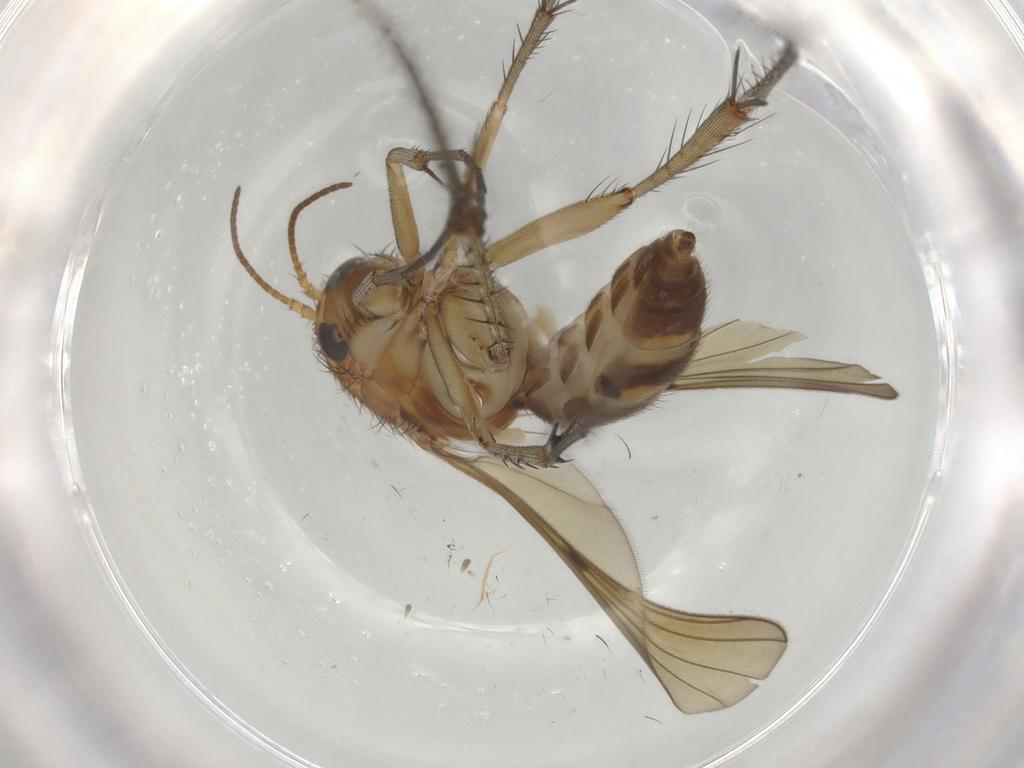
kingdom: Animalia
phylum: Arthropoda
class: Insecta
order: Diptera
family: Mycetophilidae
